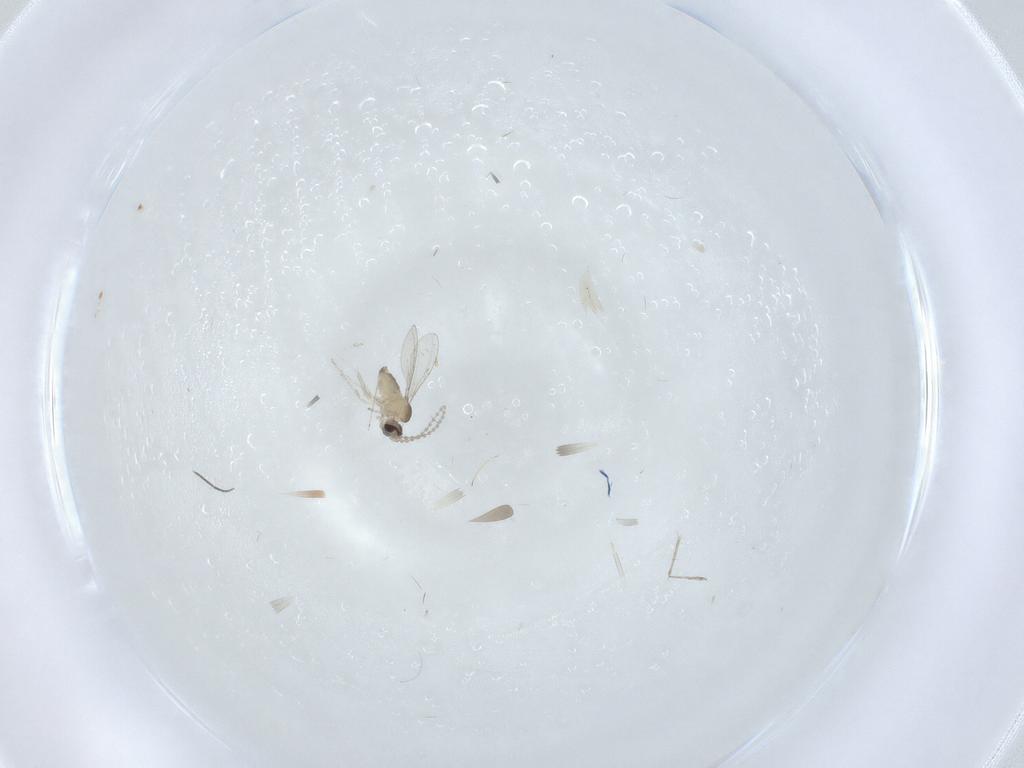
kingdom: Animalia
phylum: Arthropoda
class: Insecta
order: Diptera
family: Cecidomyiidae
